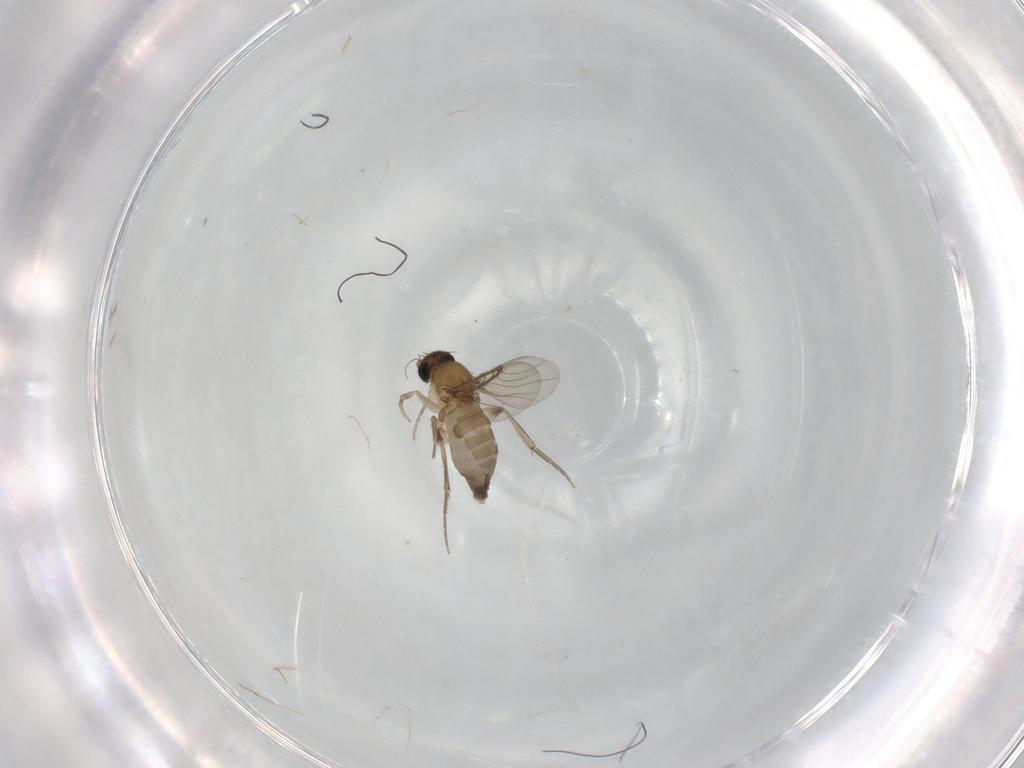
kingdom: Animalia
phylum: Arthropoda
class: Insecta
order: Diptera
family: Phoridae
